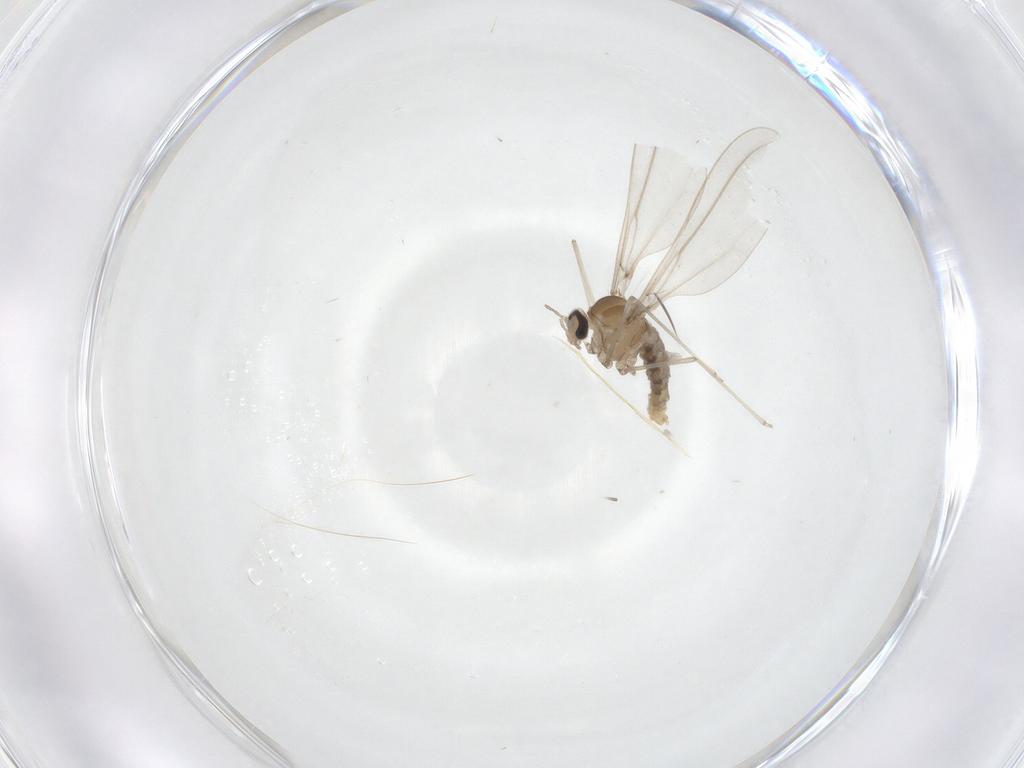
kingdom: Animalia
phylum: Arthropoda
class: Insecta
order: Diptera
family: Ceratopogonidae
